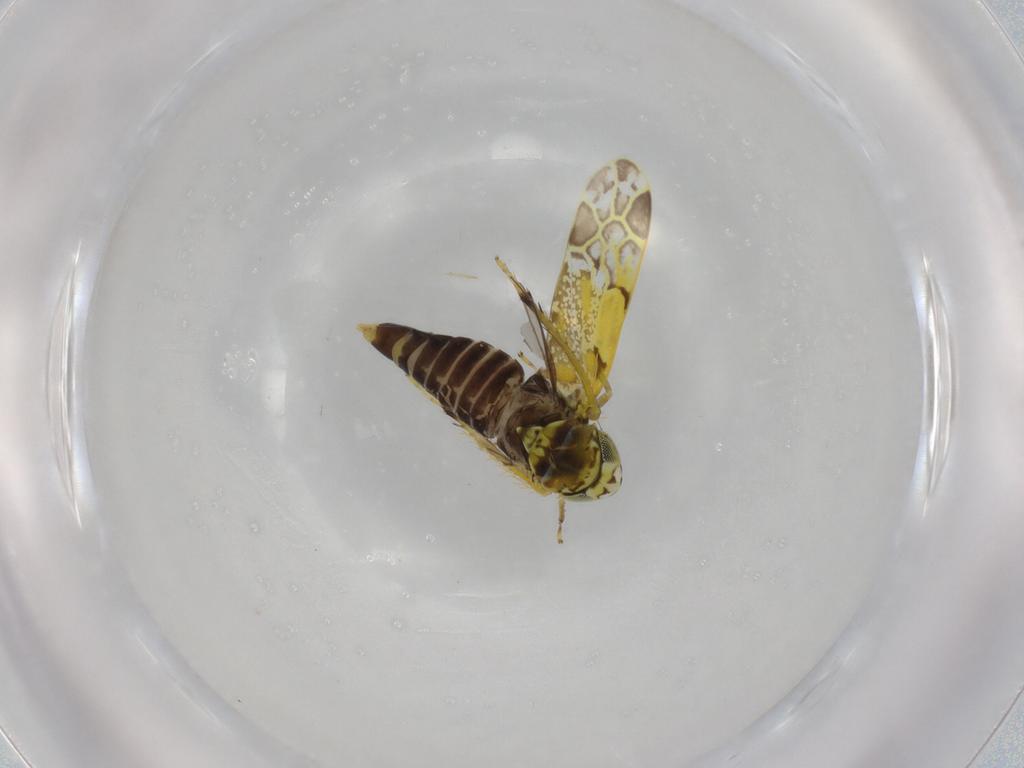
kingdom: Animalia
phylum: Arthropoda
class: Insecta
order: Hemiptera
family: Cicadellidae
